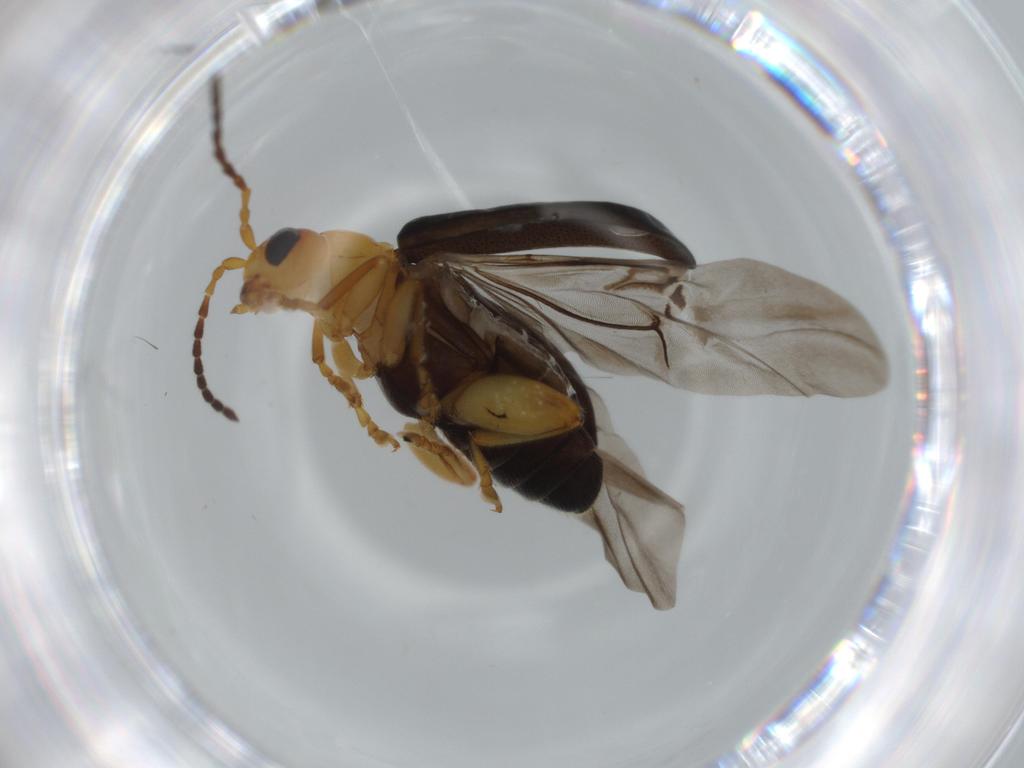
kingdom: Animalia
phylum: Arthropoda
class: Insecta
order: Coleoptera
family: Chrysomelidae
